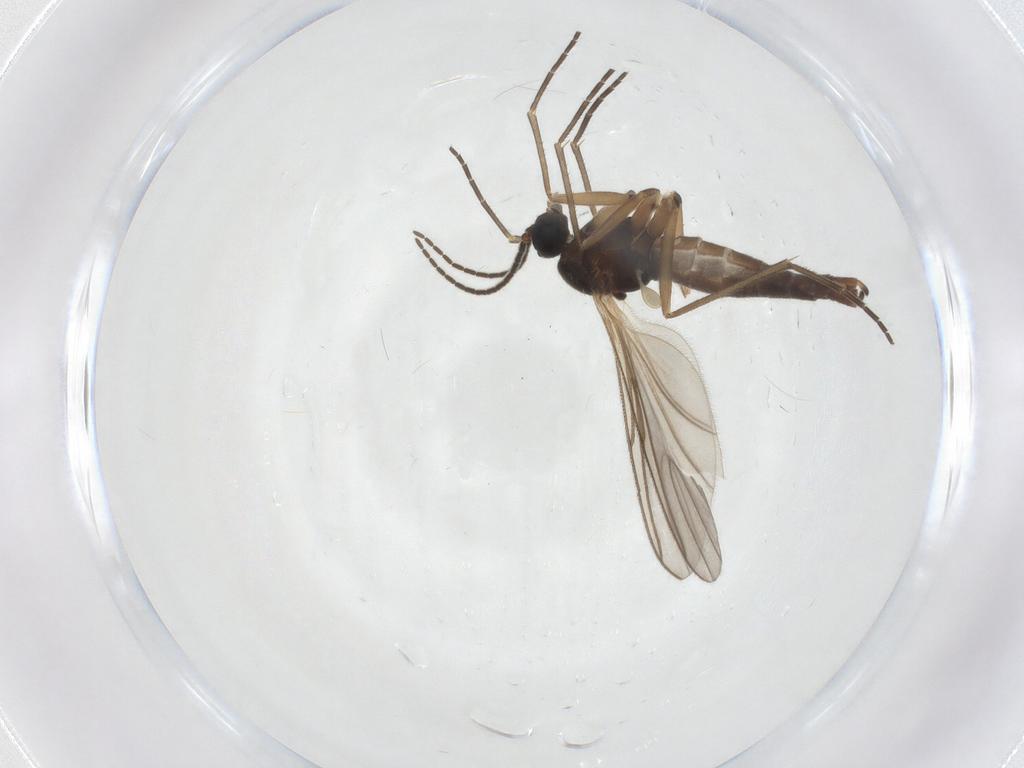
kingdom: Animalia
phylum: Arthropoda
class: Insecta
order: Diptera
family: Sciaridae
